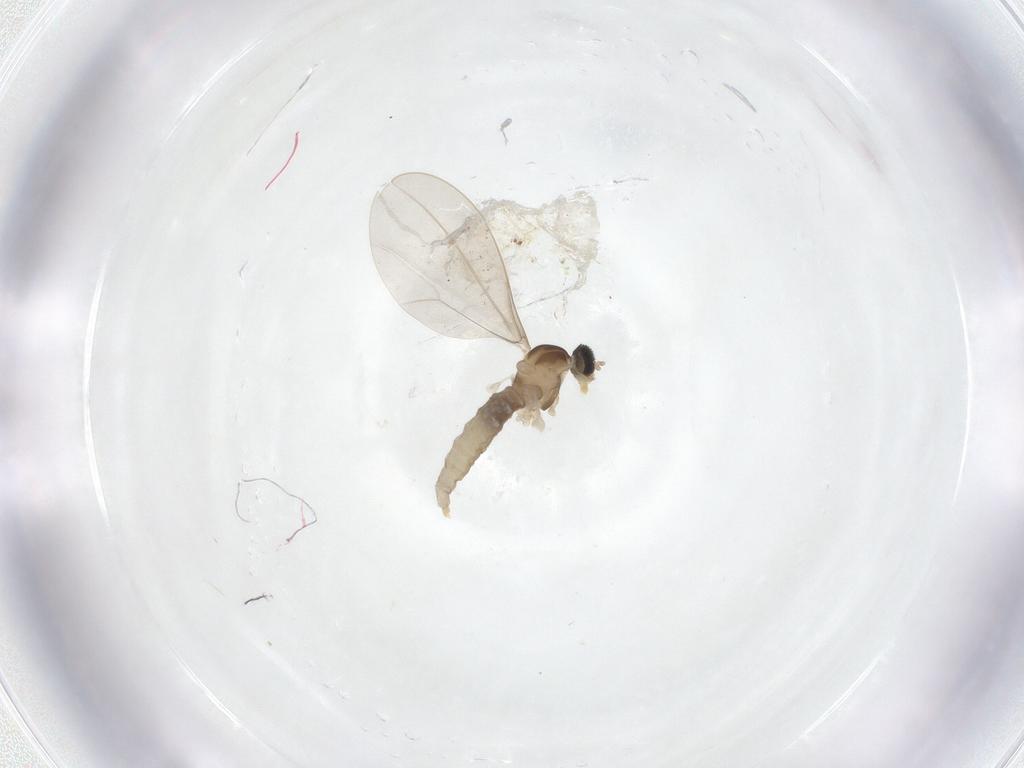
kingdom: Animalia
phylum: Arthropoda
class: Insecta
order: Diptera
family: Cecidomyiidae
